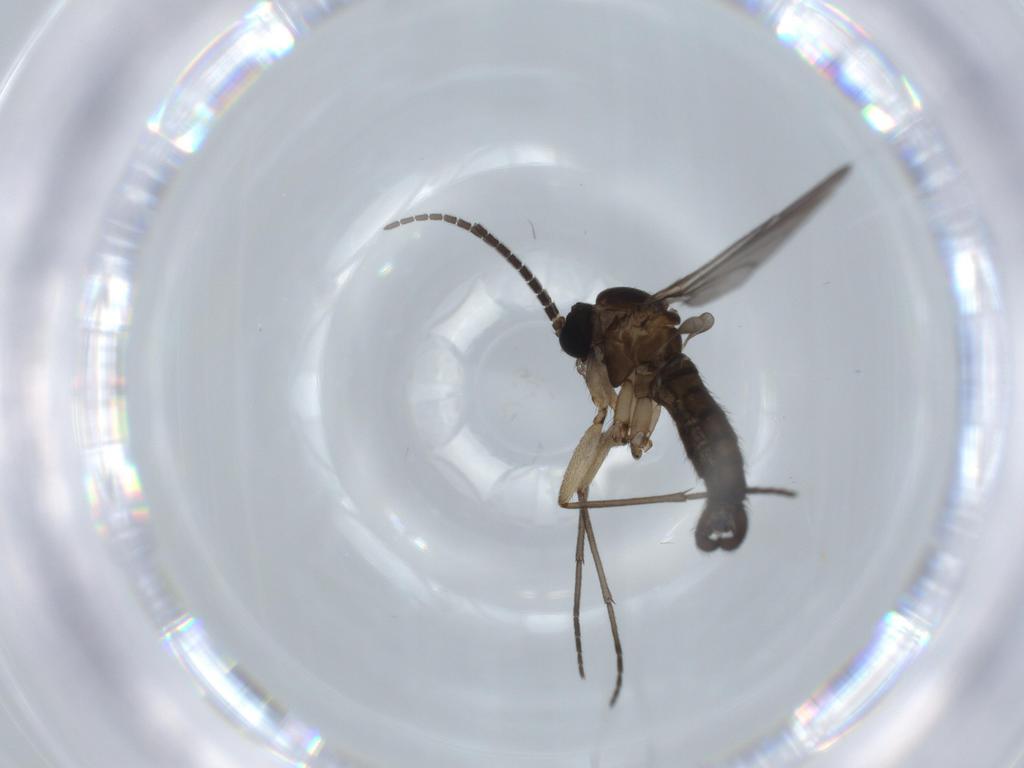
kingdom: Animalia
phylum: Arthropoda
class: Insecta
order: Diptera
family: Sciaridae
